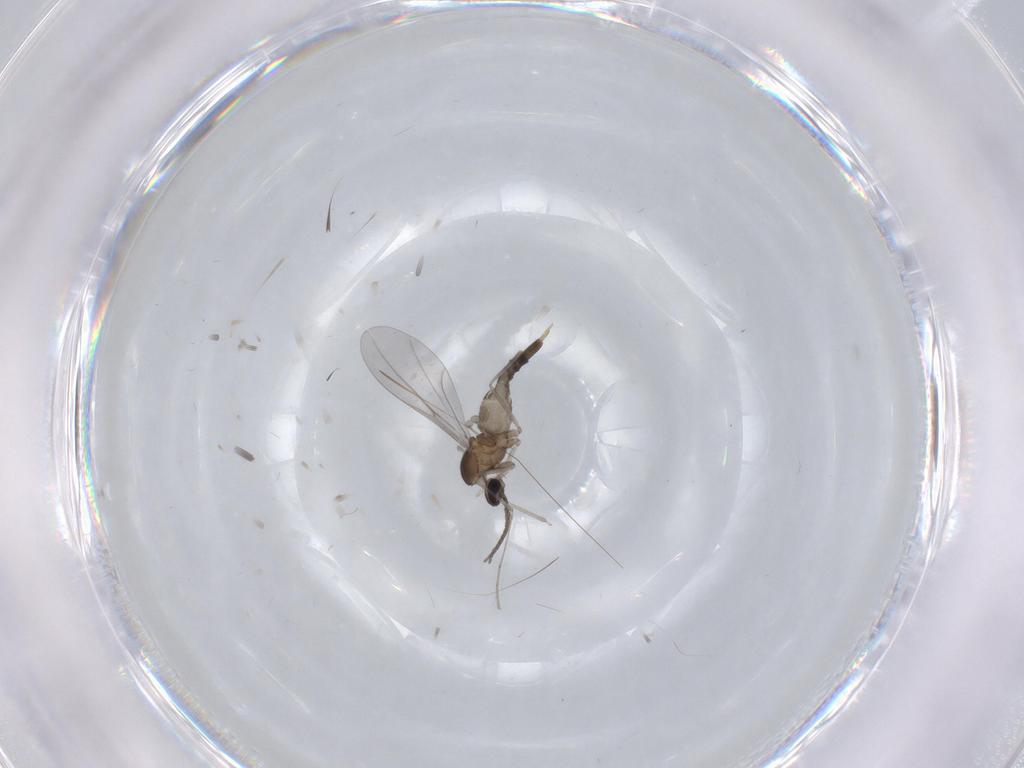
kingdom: Animalia
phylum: Arthropoda
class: Insecta
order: Diptera
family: Cecidomyiidae
